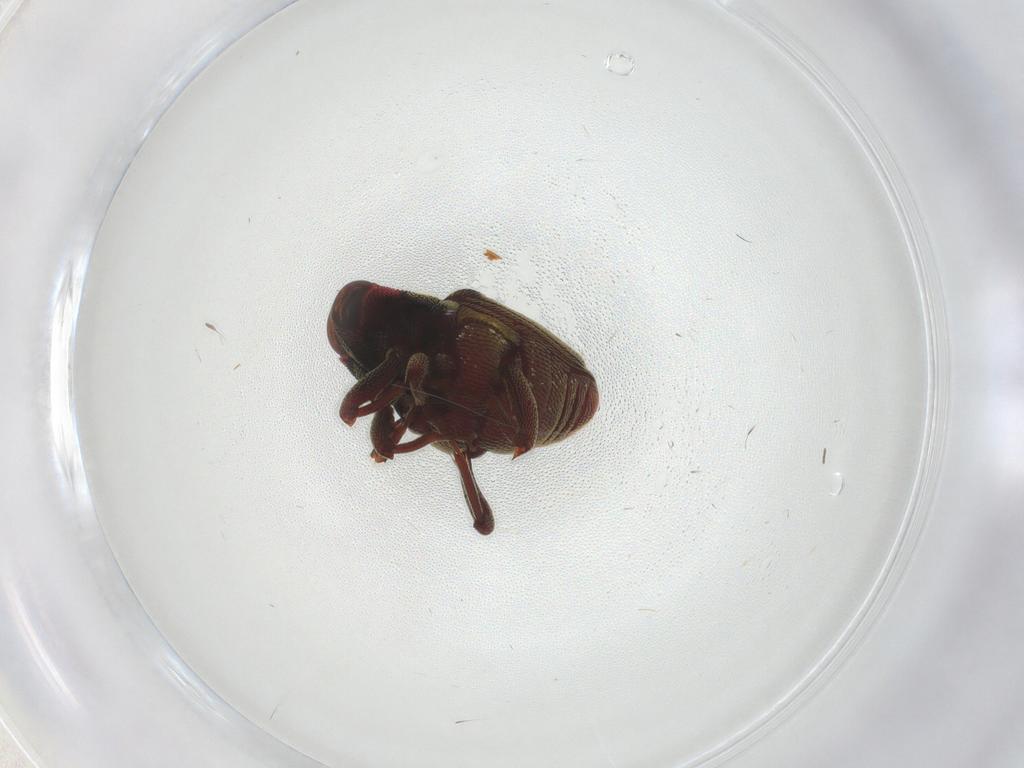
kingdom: Animalia
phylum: Arthropoda
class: Insecta
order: Coleoptera
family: Curculionidae
